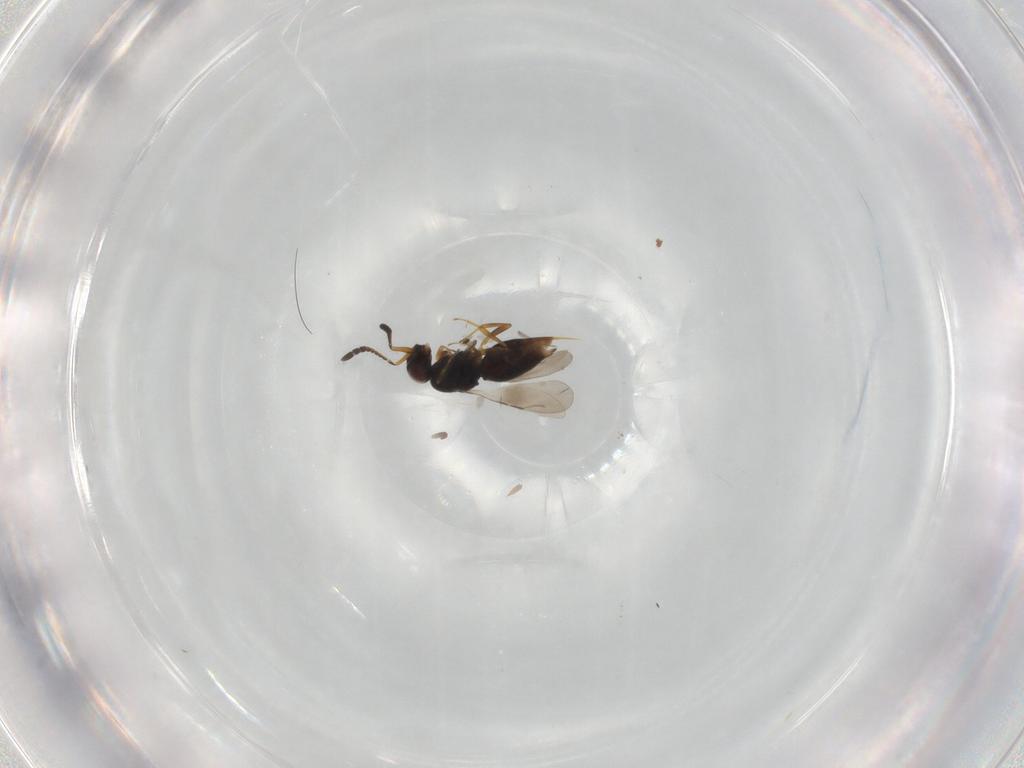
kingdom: Animalia
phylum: Arthropoda
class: Insecta
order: Hymenoptera
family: Ceraphronidae
